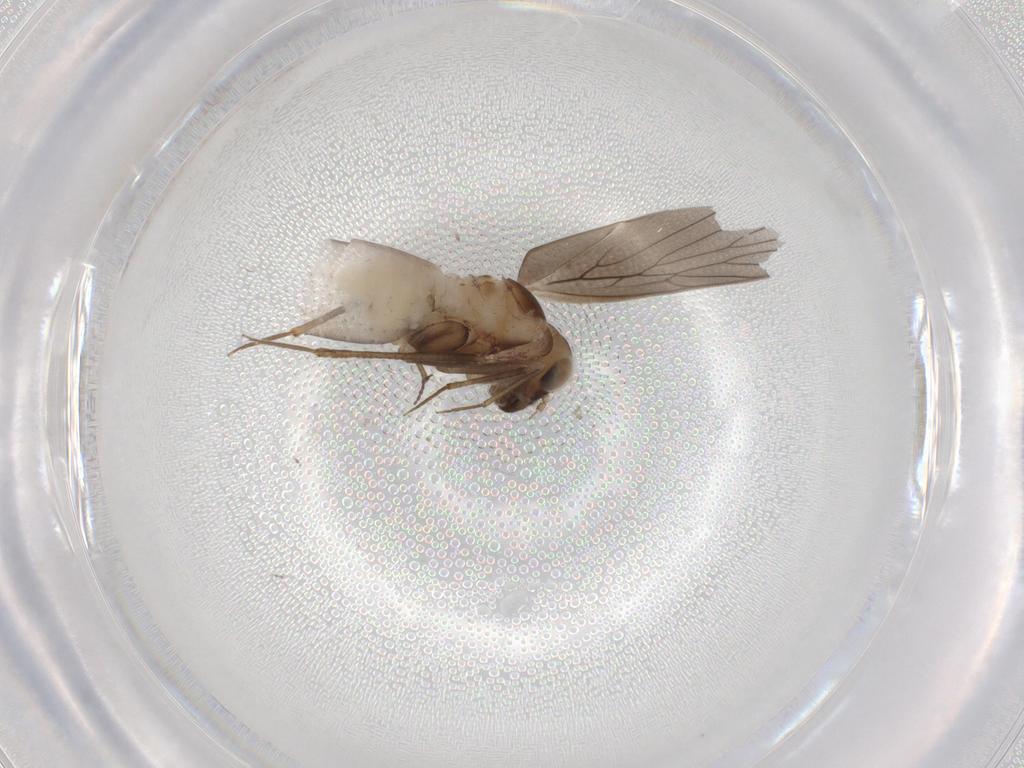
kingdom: Animalia
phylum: Arthropoda
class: Insecta
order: Psocodea
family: Lepidopsocidae
